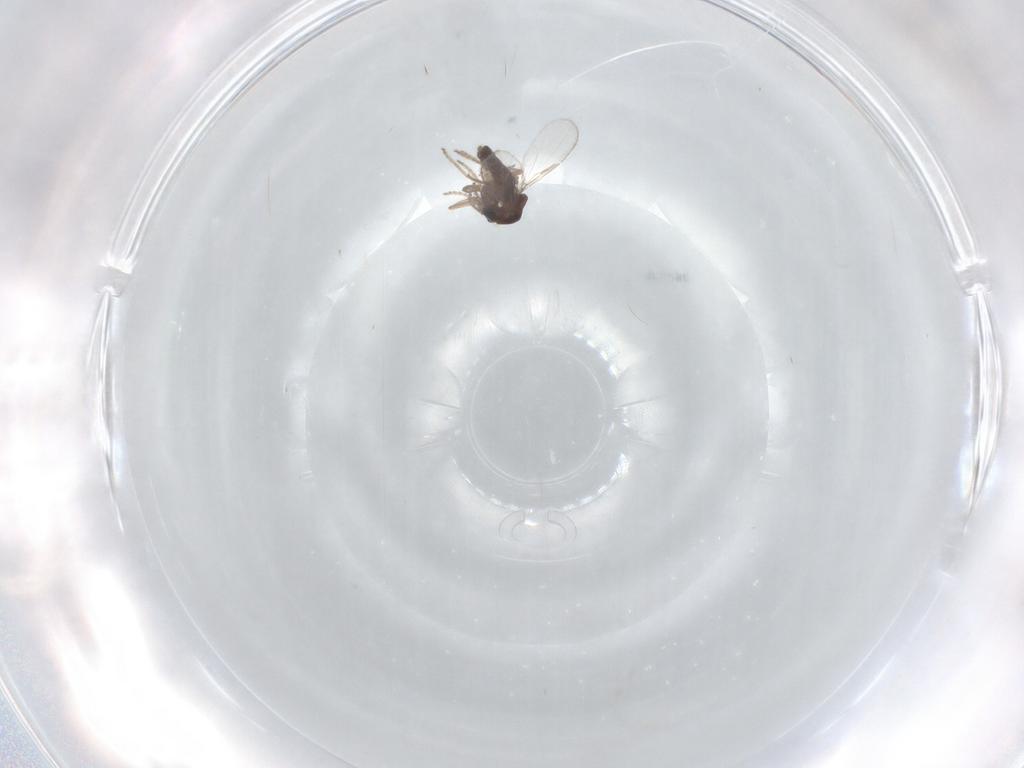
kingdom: Animalia
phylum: Arthropoda
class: Insecta
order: Diptera
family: Ceratopogonidae
